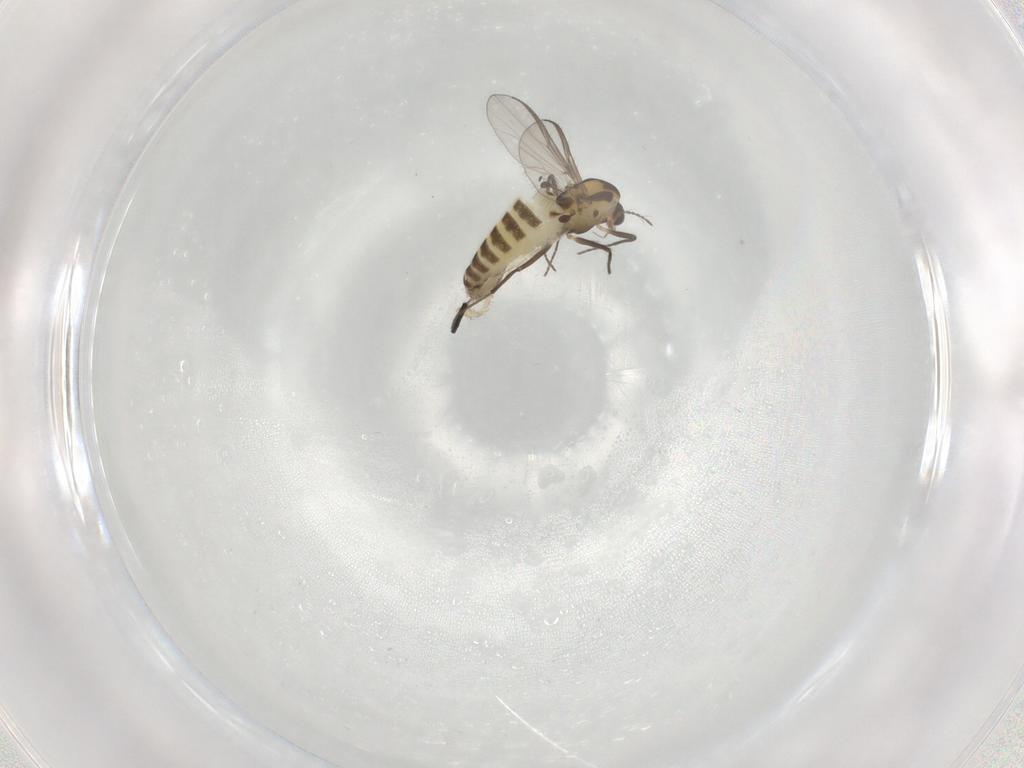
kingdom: Animalia
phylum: Arthropoda
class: Insecta
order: Diptera
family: Chironomidae
